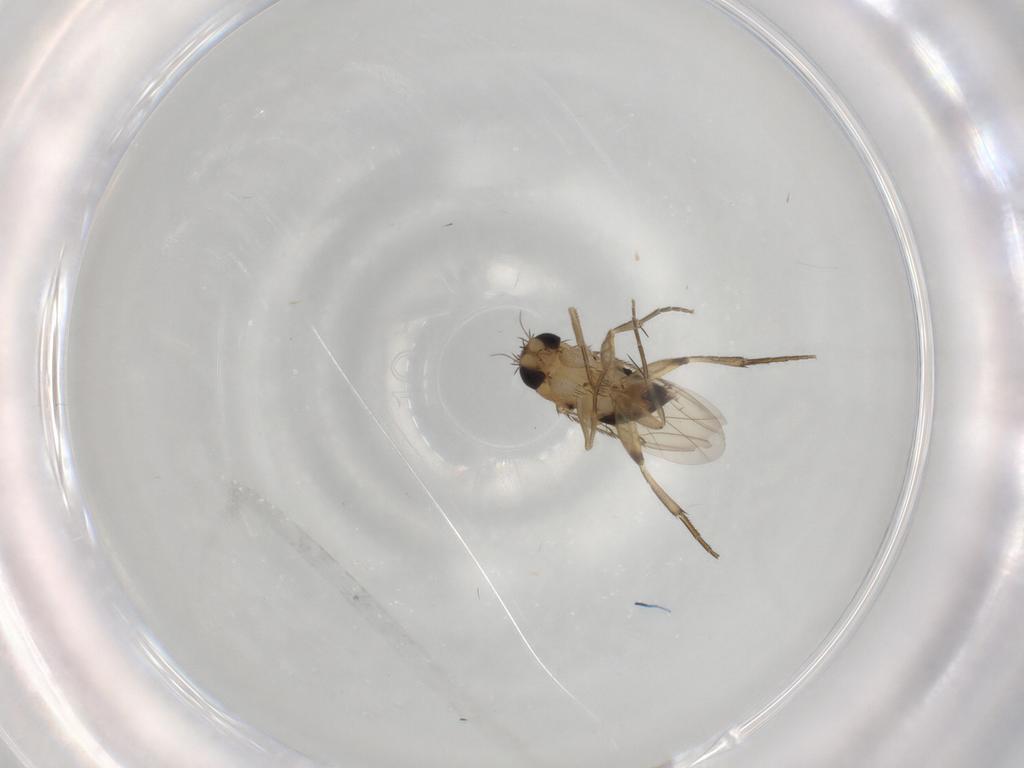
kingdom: Animalia
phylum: Arthropoda
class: Insecta
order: Diptera
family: Phoridae
